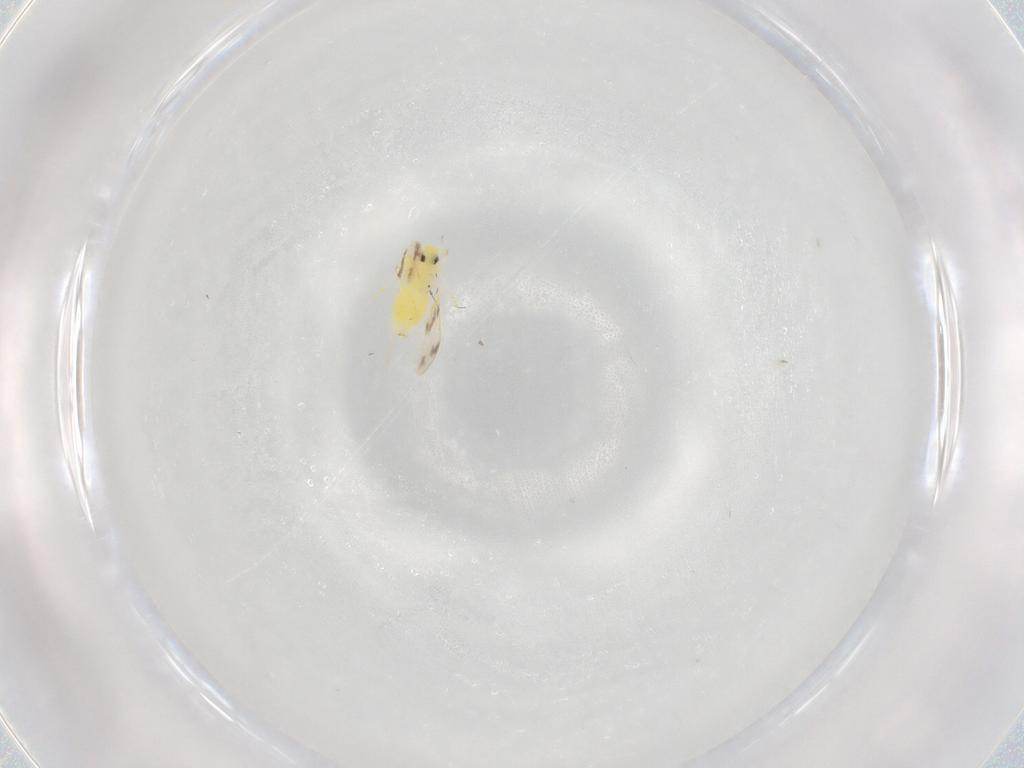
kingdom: Animalia
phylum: Arthropoda
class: Insecta
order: Hemiptera
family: Aleyrodidae
